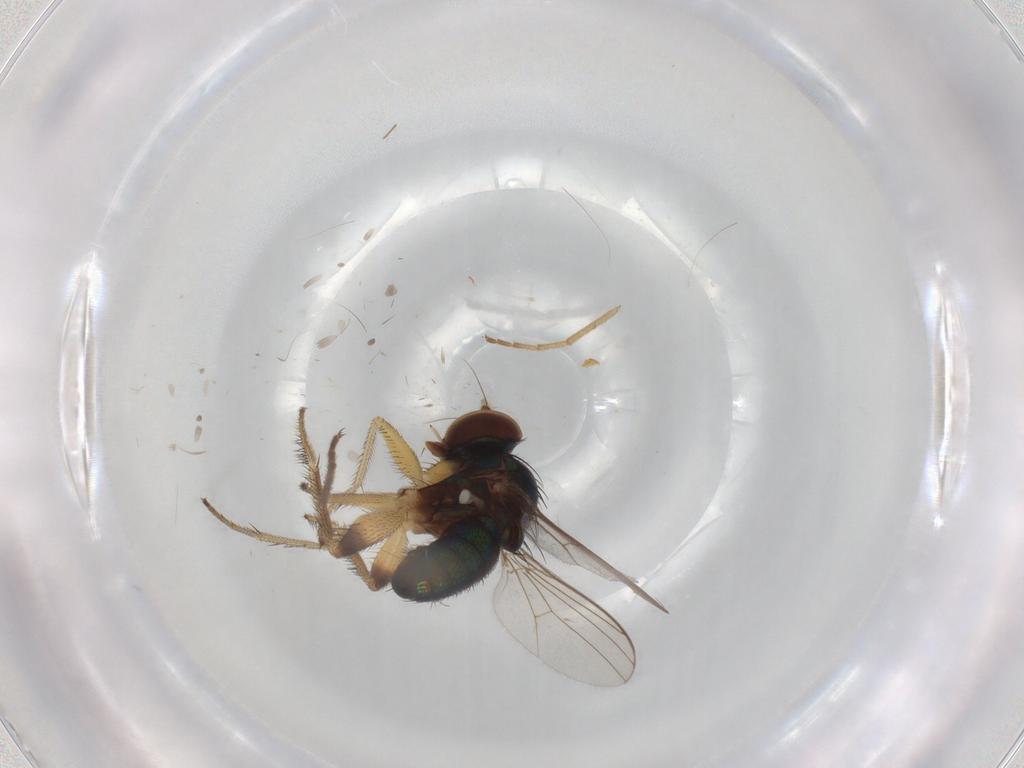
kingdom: Animalia
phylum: Arthropoda
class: Insecta
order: Diptera
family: Limoniidae
